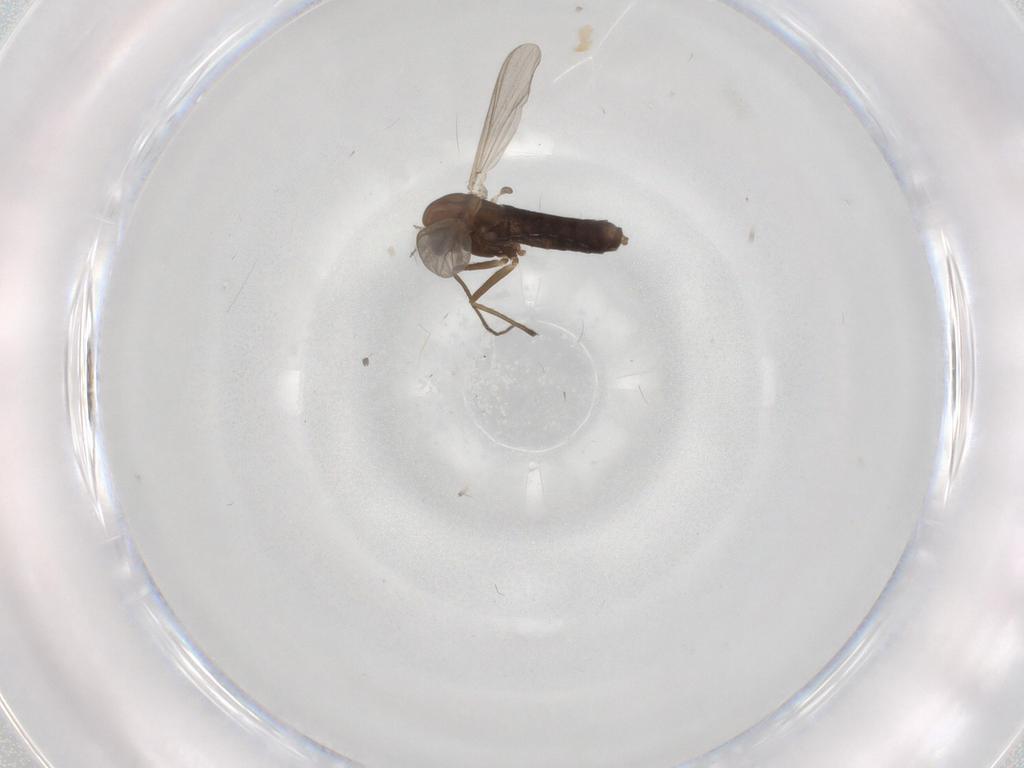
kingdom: Animalia
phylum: Arthropoda
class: Insecta
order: Diptera
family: Chironomidae
